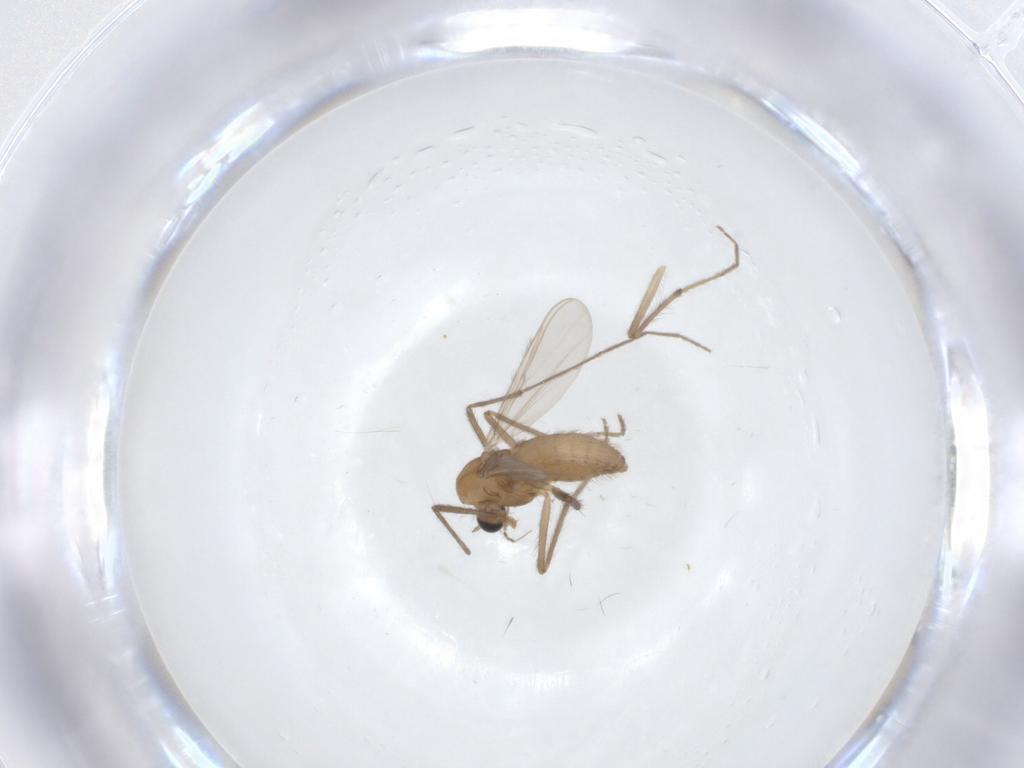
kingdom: Animalia
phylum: Arthropoda
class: Insecta
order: Diptera
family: Chironomidae
